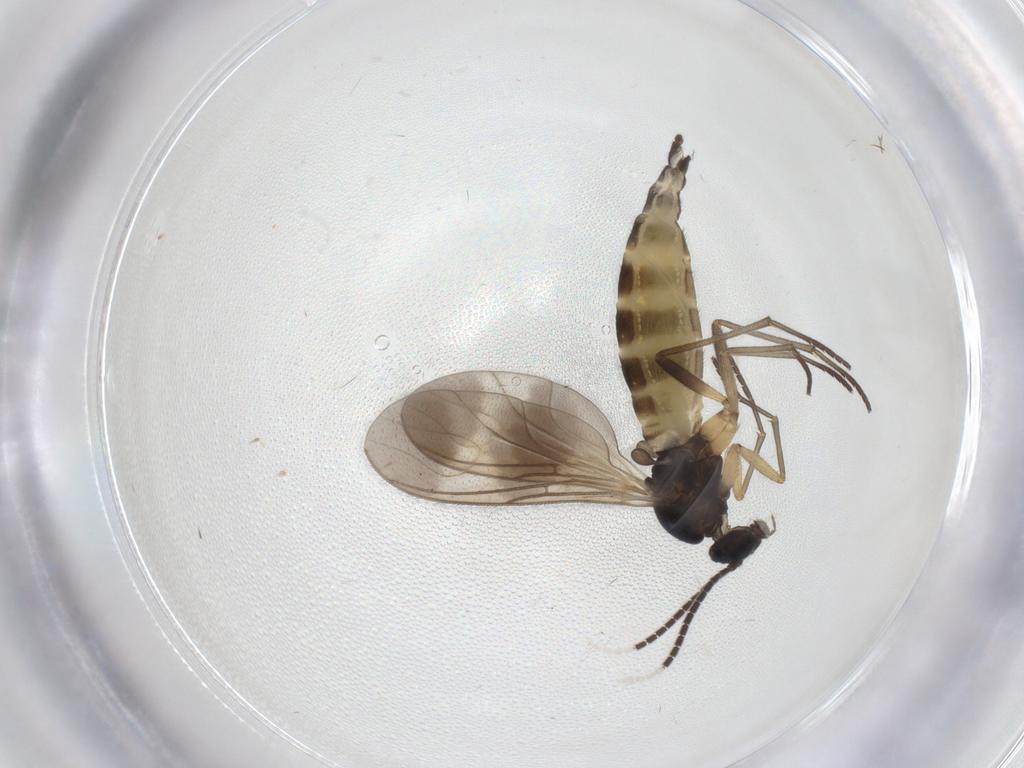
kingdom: Animalia
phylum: Arthropoda
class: Insecta
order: Diptera
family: Sciaridae
